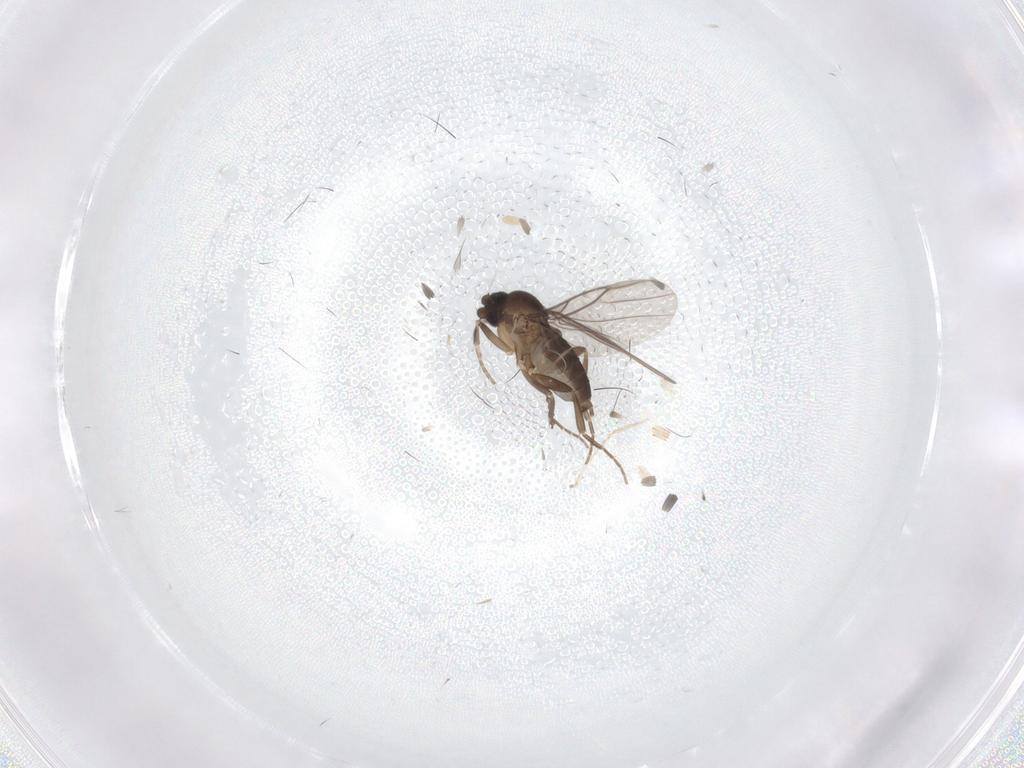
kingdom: Animalia
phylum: Arthropoda
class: Insecta
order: Diptera
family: Cecidomyiidae
